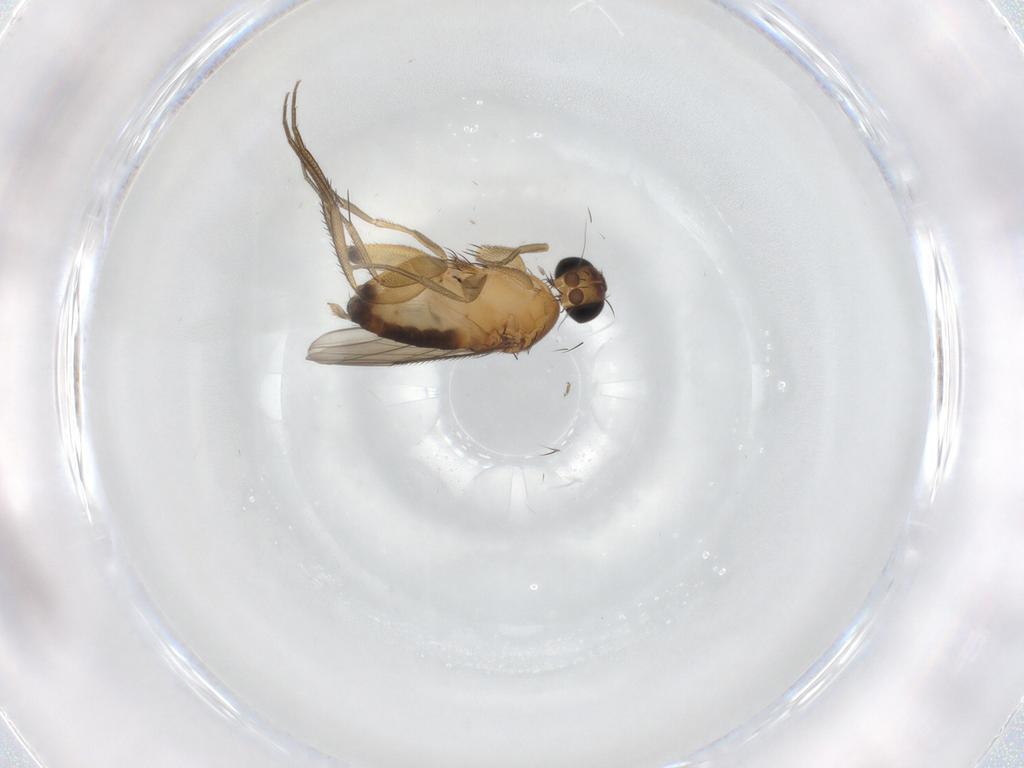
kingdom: Animalia
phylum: Arthropoda
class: Insecta
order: Diptera
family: Phoridae
